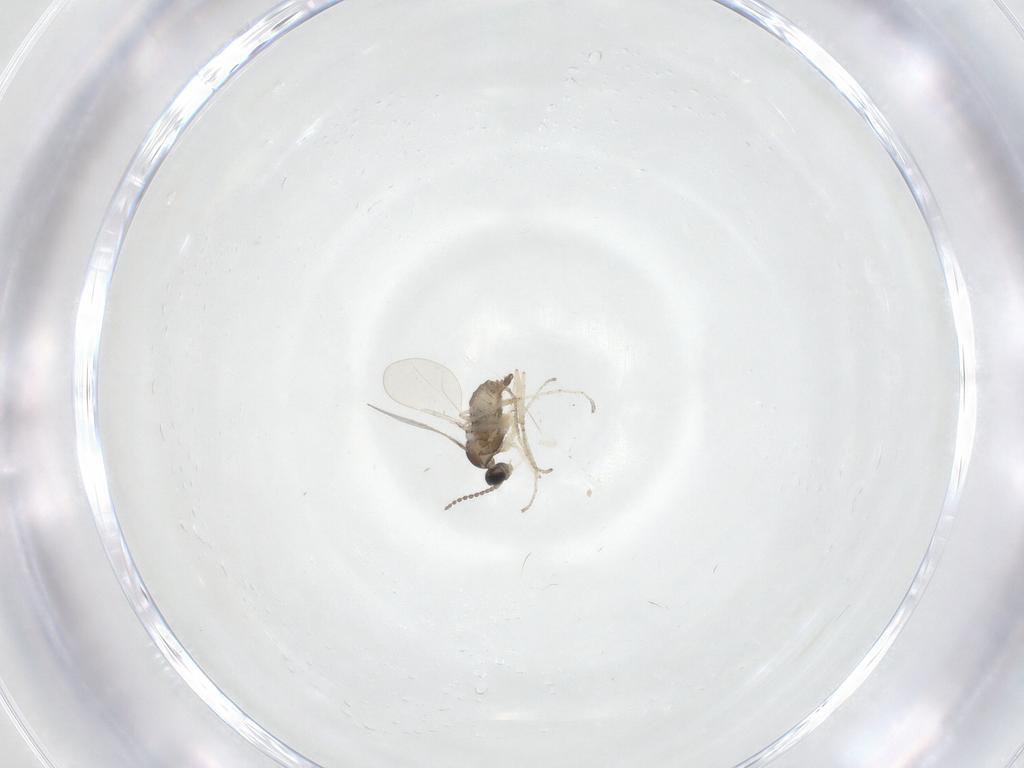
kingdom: Animalia
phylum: Arthropoda
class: Insecta
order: Diptera
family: Cecidomyiidae
